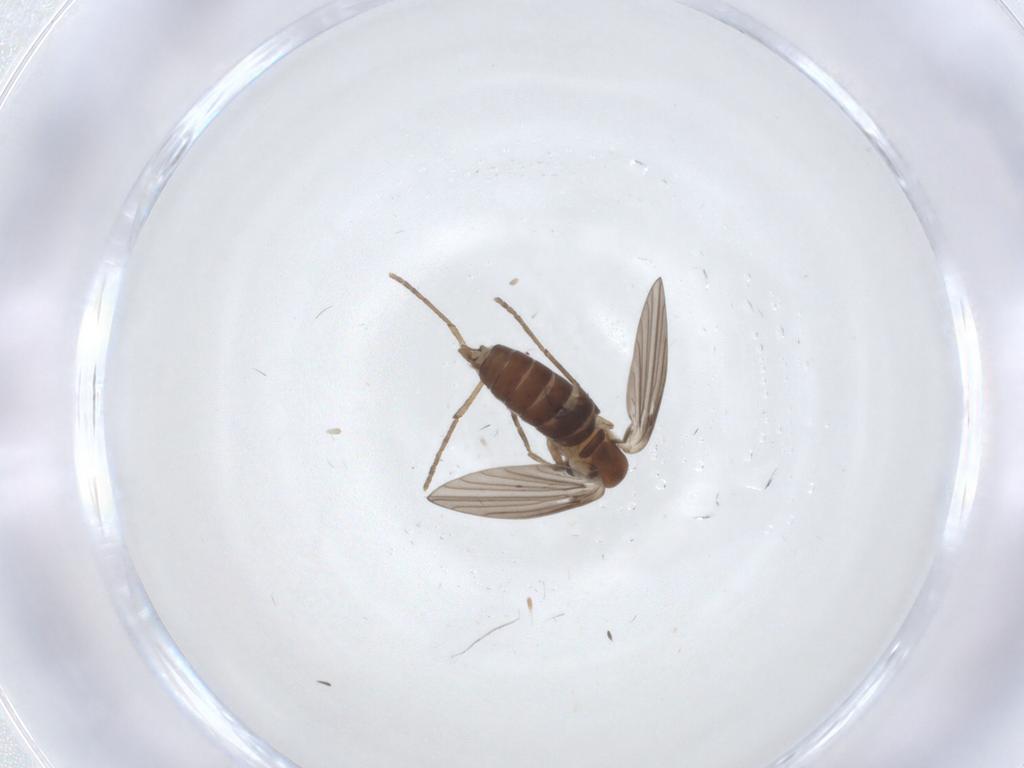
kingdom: Animalia
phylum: Arthropoda
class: Insecta
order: Diptera
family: Psychodidae
